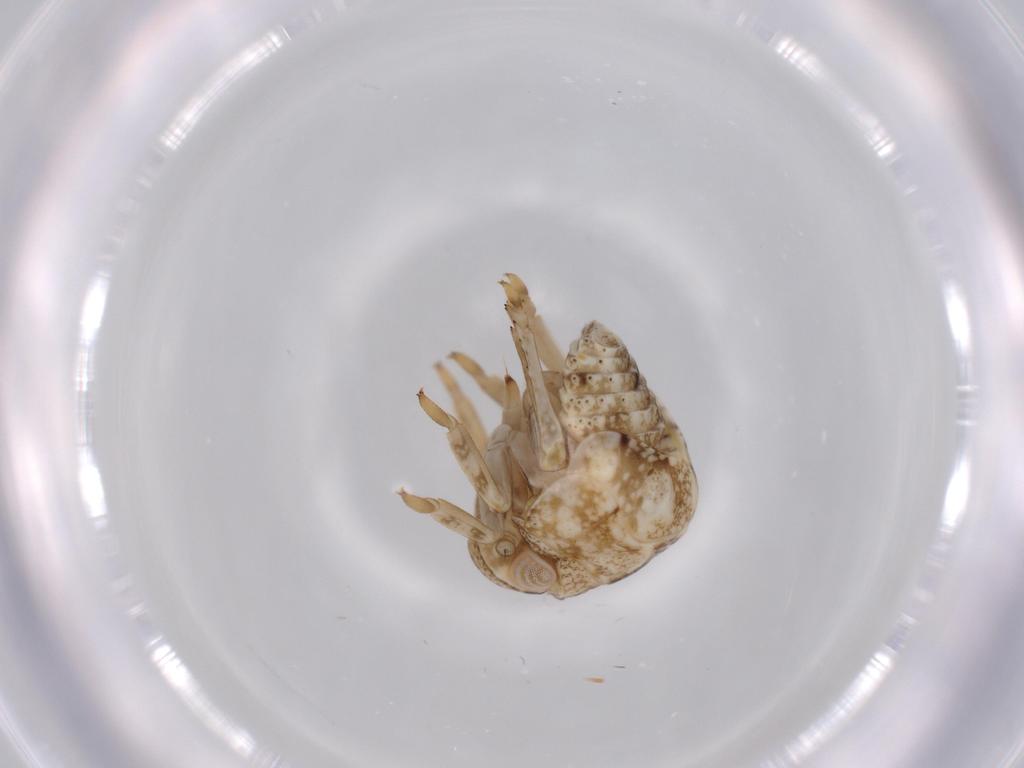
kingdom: Animalia
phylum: Arthropoda
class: Insecta
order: Hemiptera
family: Acanaloniidae
